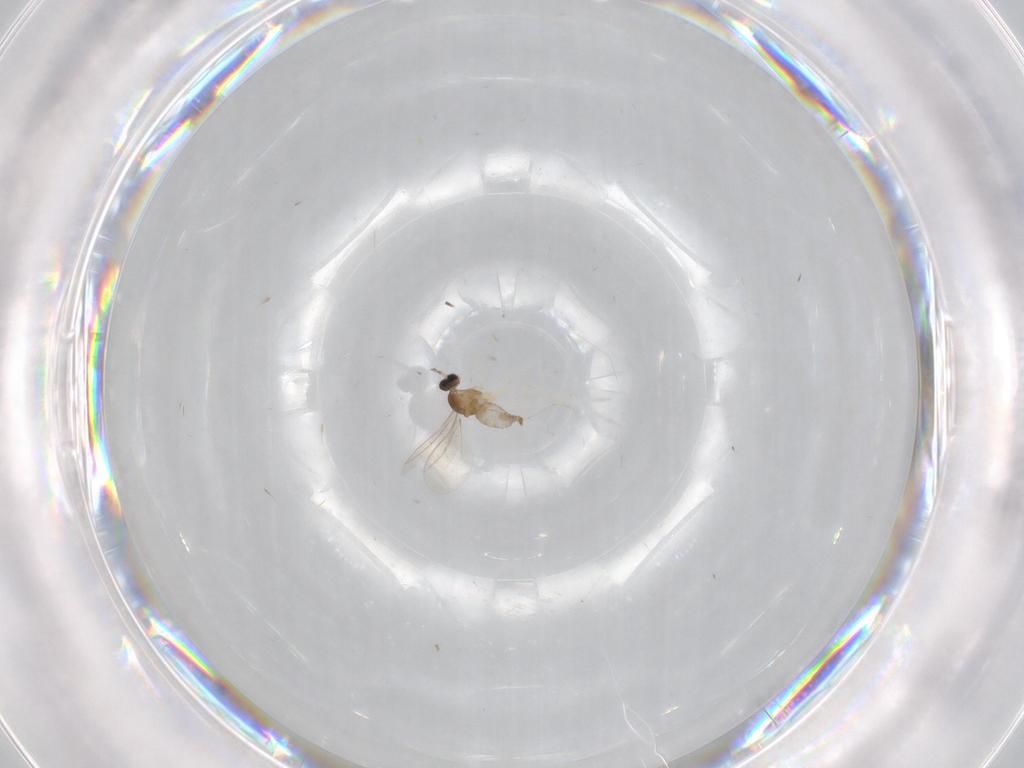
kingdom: Animalia
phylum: Arthropoda
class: Insecta
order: Diptera
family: Cecidomyiidae
